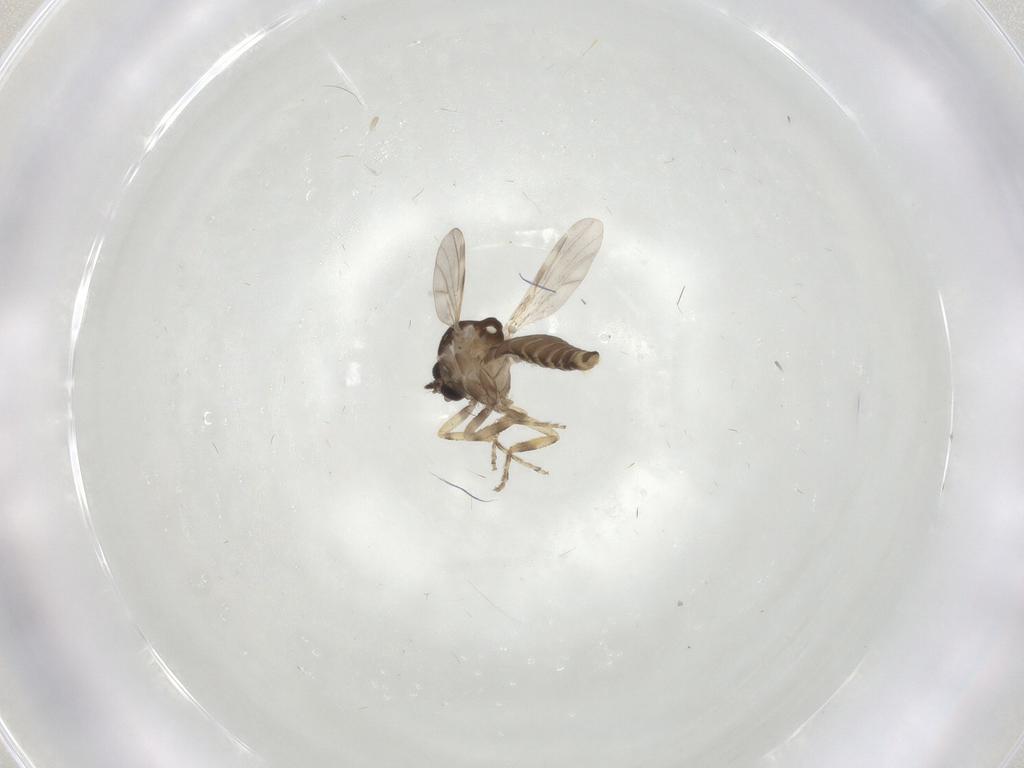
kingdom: Animalia
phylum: Arthropoda
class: Insecta
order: Diptera
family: Ceratopogonidae
